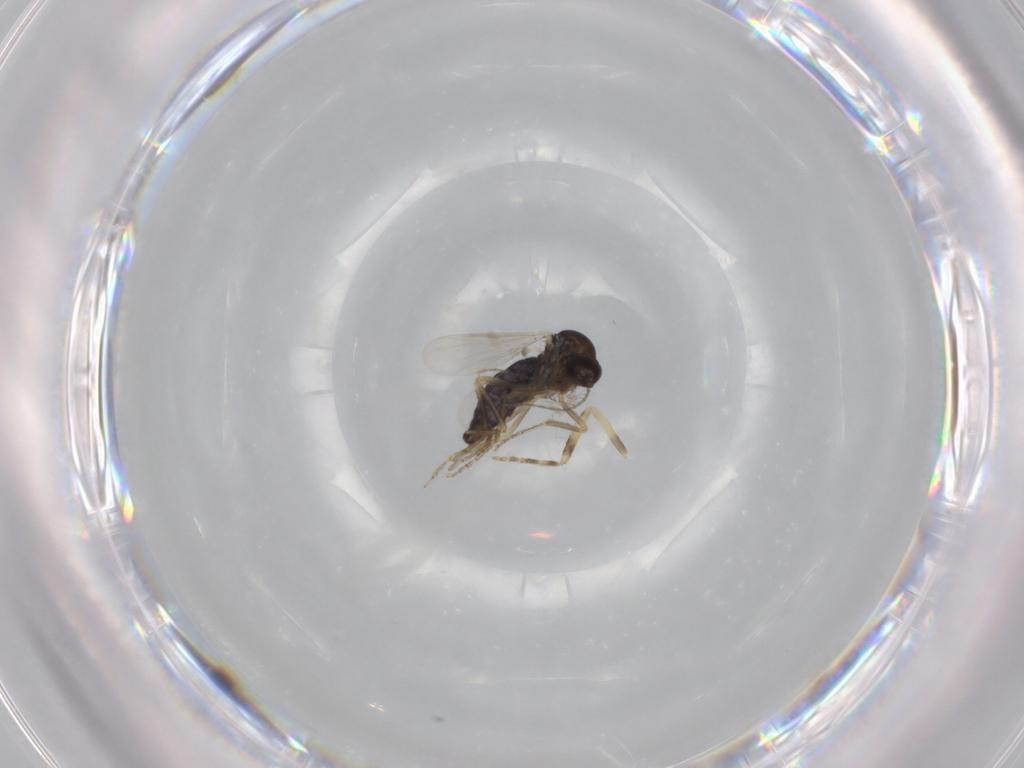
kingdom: Animalia
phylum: Arthropoda
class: Insecta
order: Diptera
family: Ceratopogonidae
